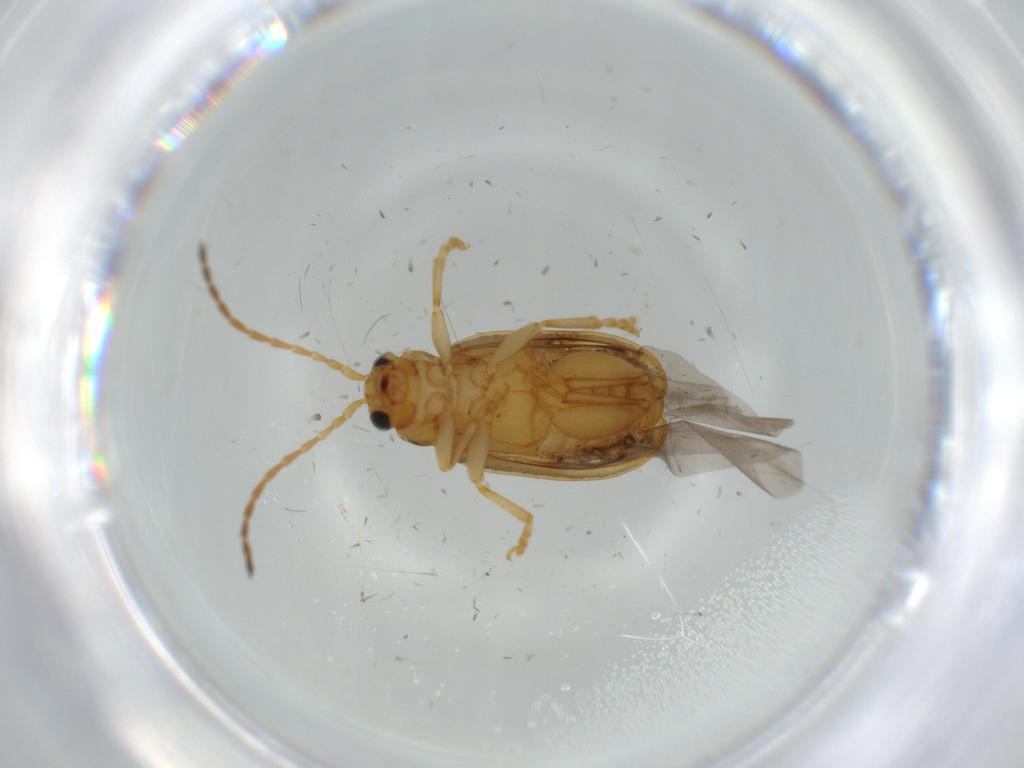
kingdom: Animalia
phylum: Arthropoda
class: Insecta
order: Coleoptera
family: Chrysomelidae
